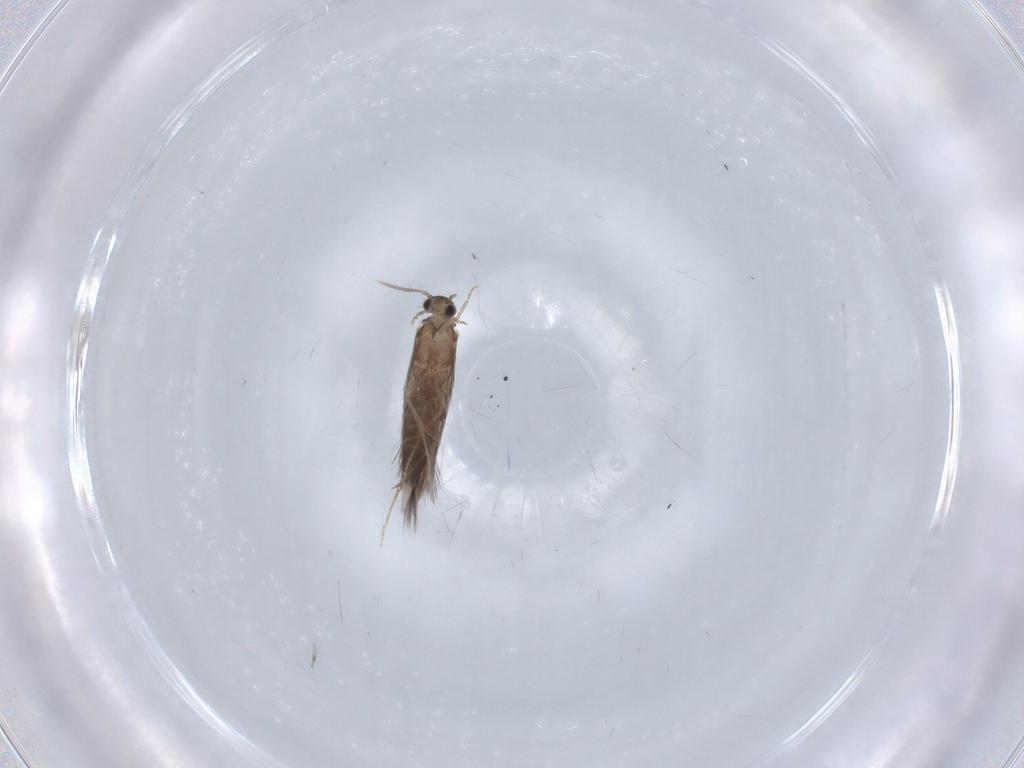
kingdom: Animalia
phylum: Arthropoda
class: Insecta
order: Trichoptera
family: Hydroptilidae
